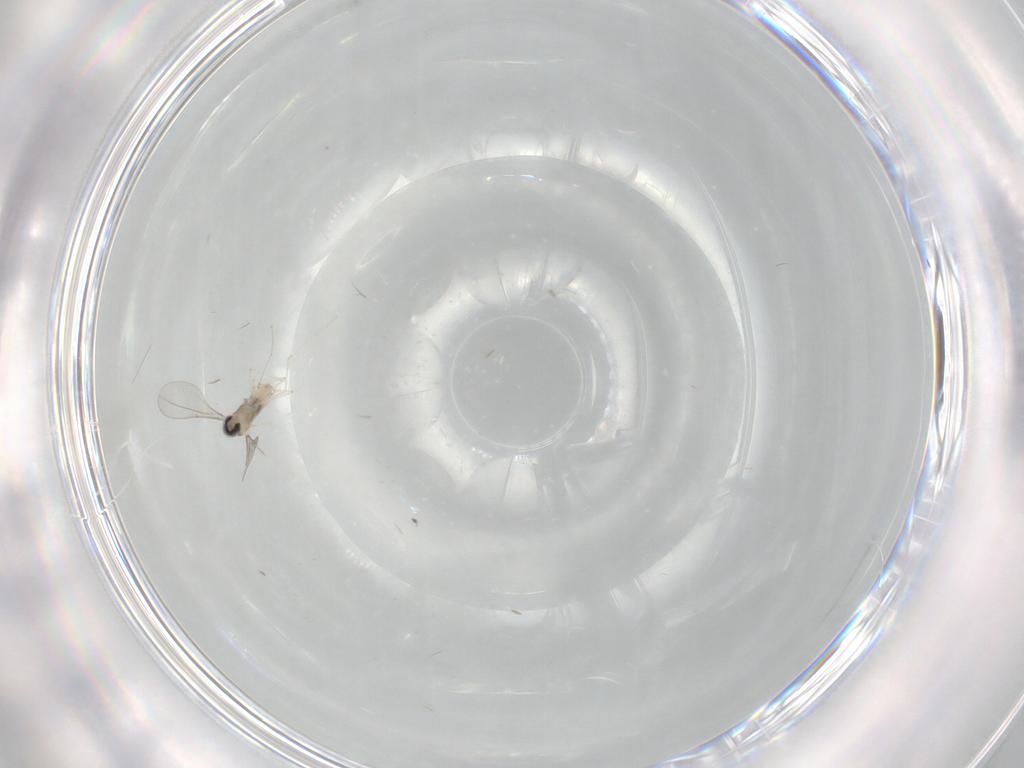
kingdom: Animalia
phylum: Arthropoda
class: Insecta
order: Diptera
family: Cecidomyiidae
